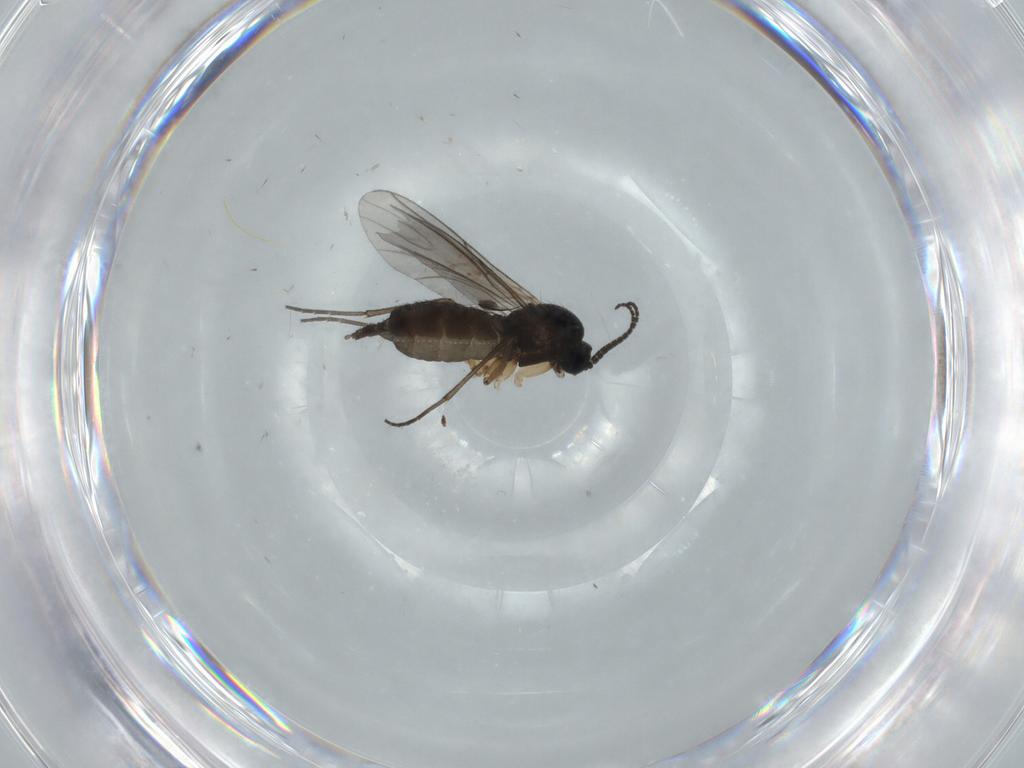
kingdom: Animalia
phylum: Arthropoda
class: Insecta
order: Diptera
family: Sciaridae
